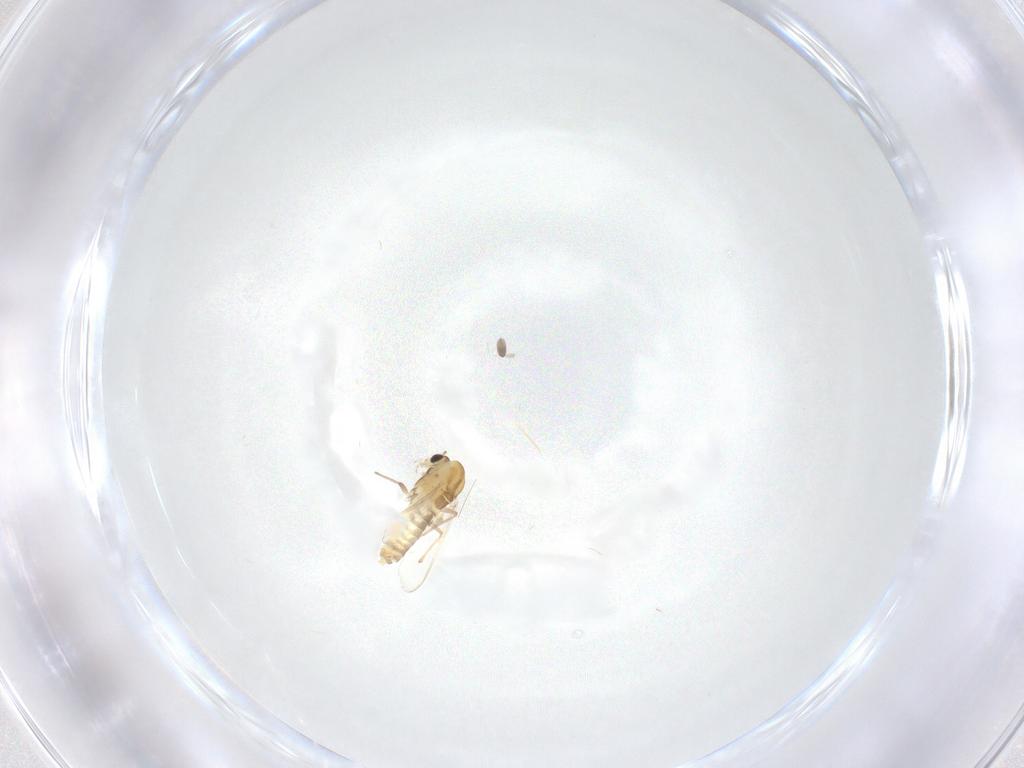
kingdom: Animalia
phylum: Arthropoda
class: Insecta
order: Diptera
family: Chironomidae
